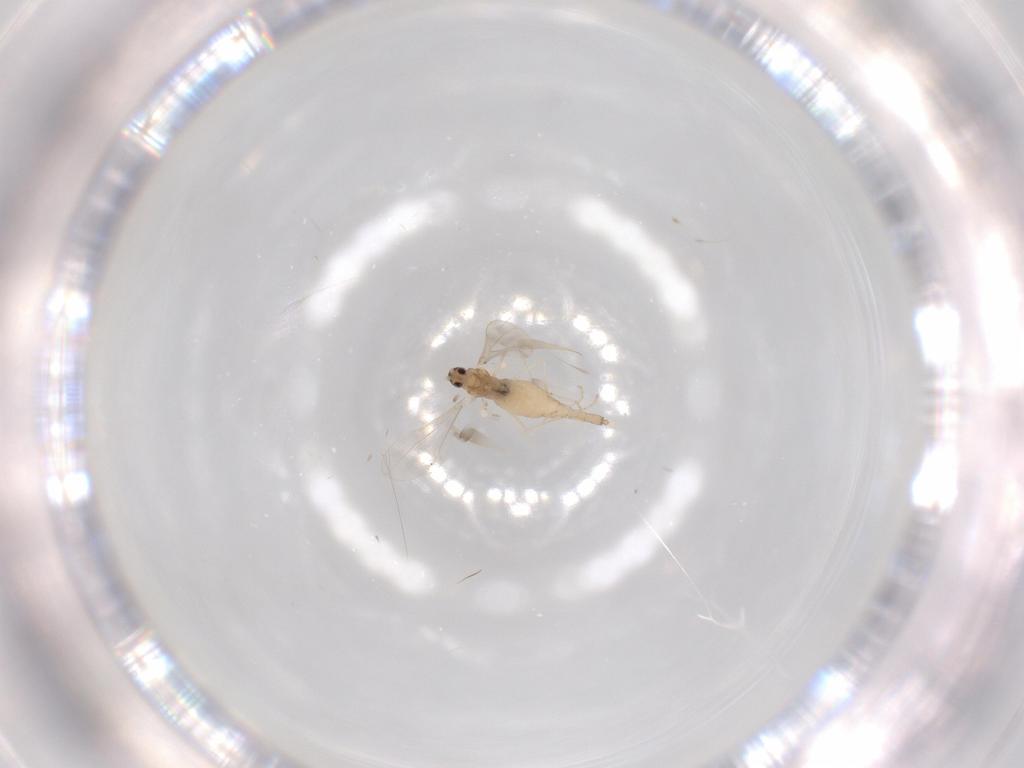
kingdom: Animalia
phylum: Arthropoda
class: Insecta
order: Diptera
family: Cecidomyiidae
